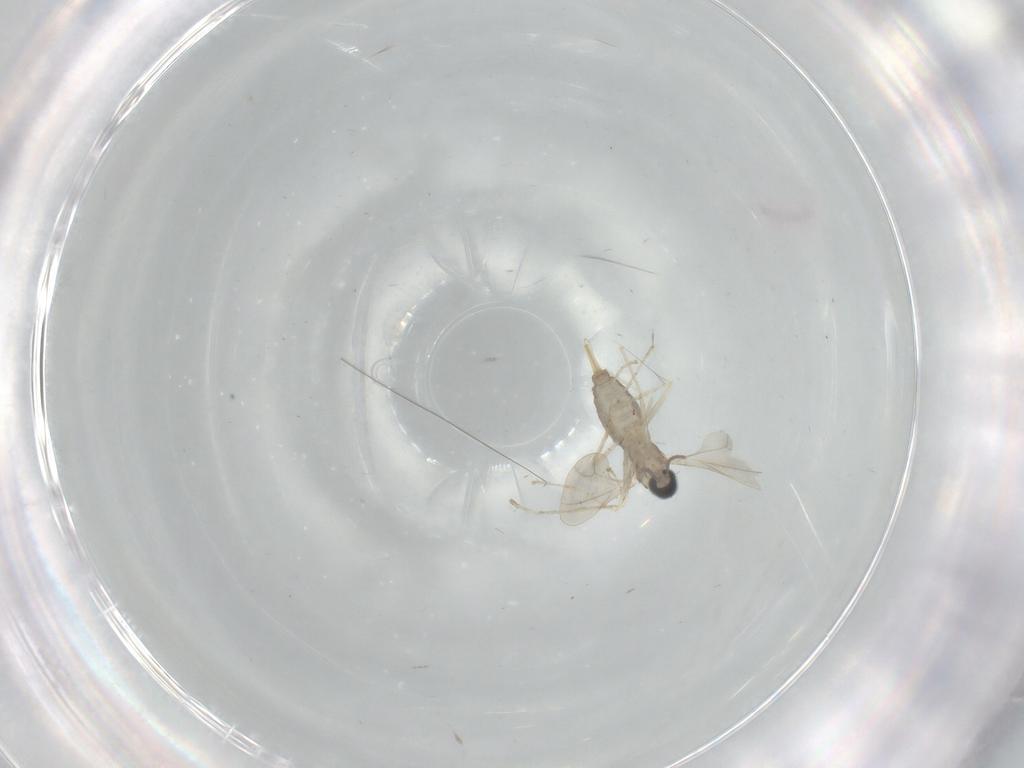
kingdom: Animalia
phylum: Arthropoda
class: Insecta
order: Diptera
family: Cecidomyiidae
